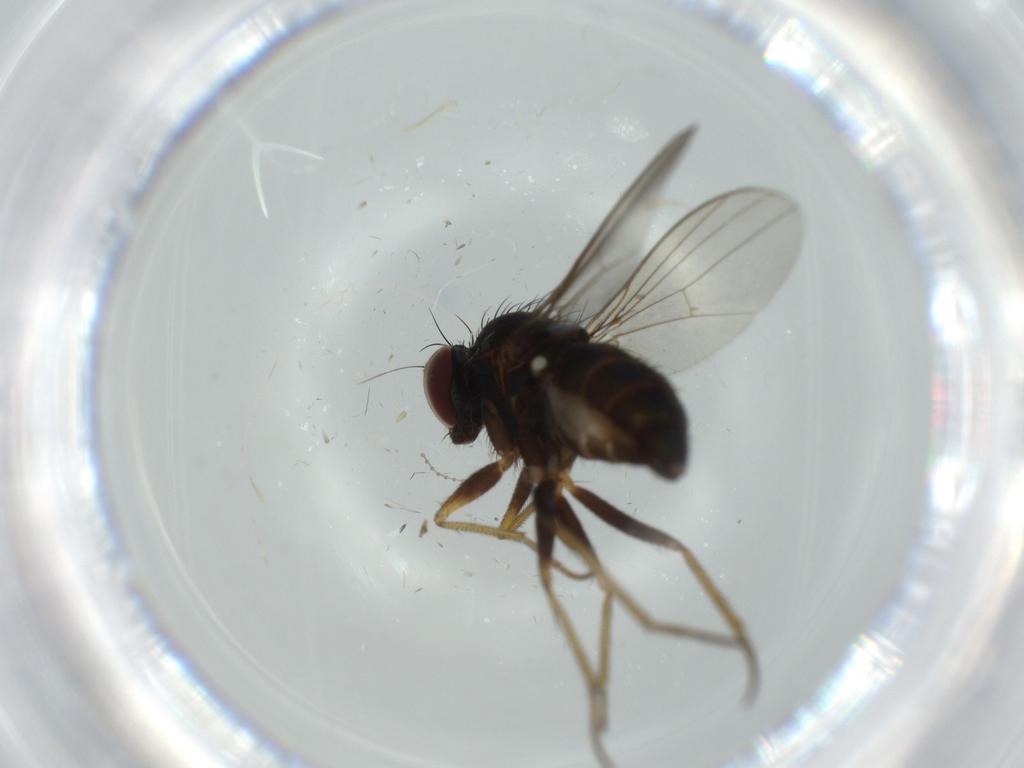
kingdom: Animalia
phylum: Arthropoda
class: Insecta
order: Diptera
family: Dolichopodidae
